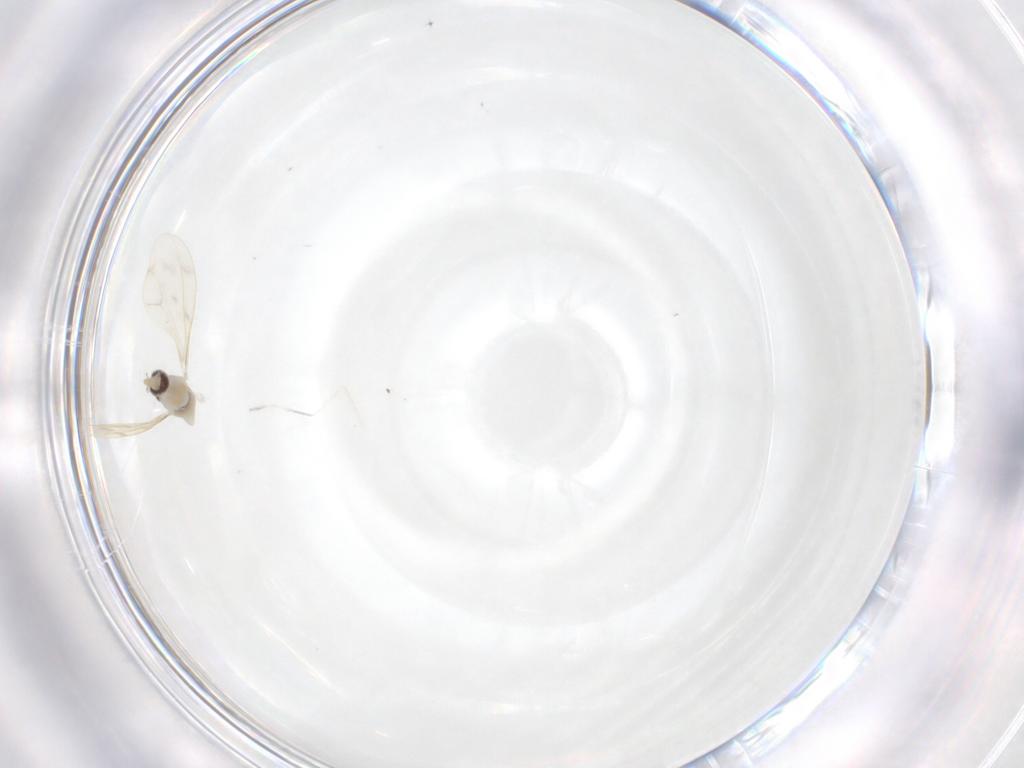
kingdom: Animalia
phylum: Arthropoda
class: Insecta
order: Diptera
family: Cecidomyiidae
